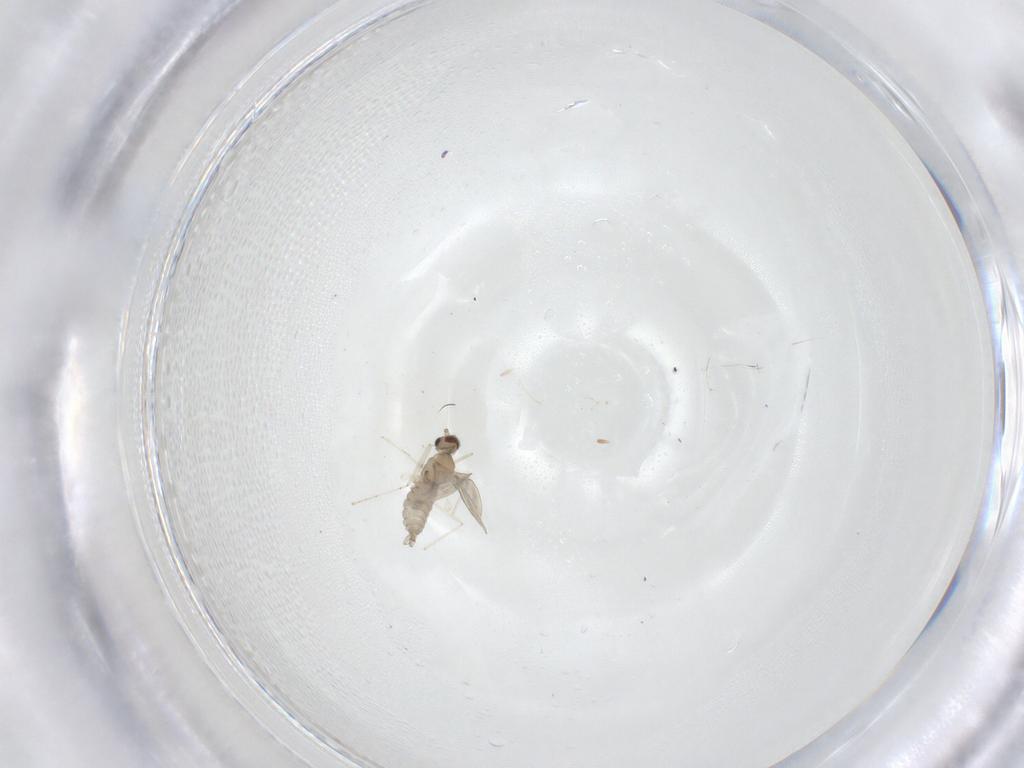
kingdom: Animalia
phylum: Arthropoda
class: Insecta
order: Diptera
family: Cecidomyiidae
